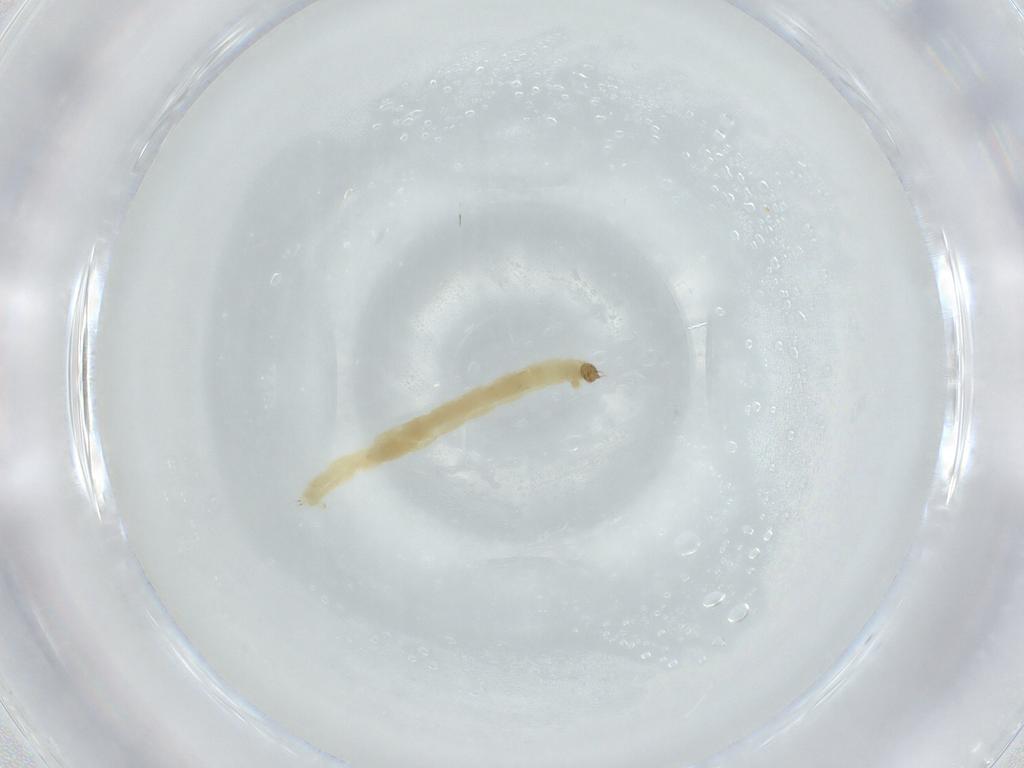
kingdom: Animalia
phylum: Arthropoda
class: Insecta
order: Diptera
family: Chironomidae
